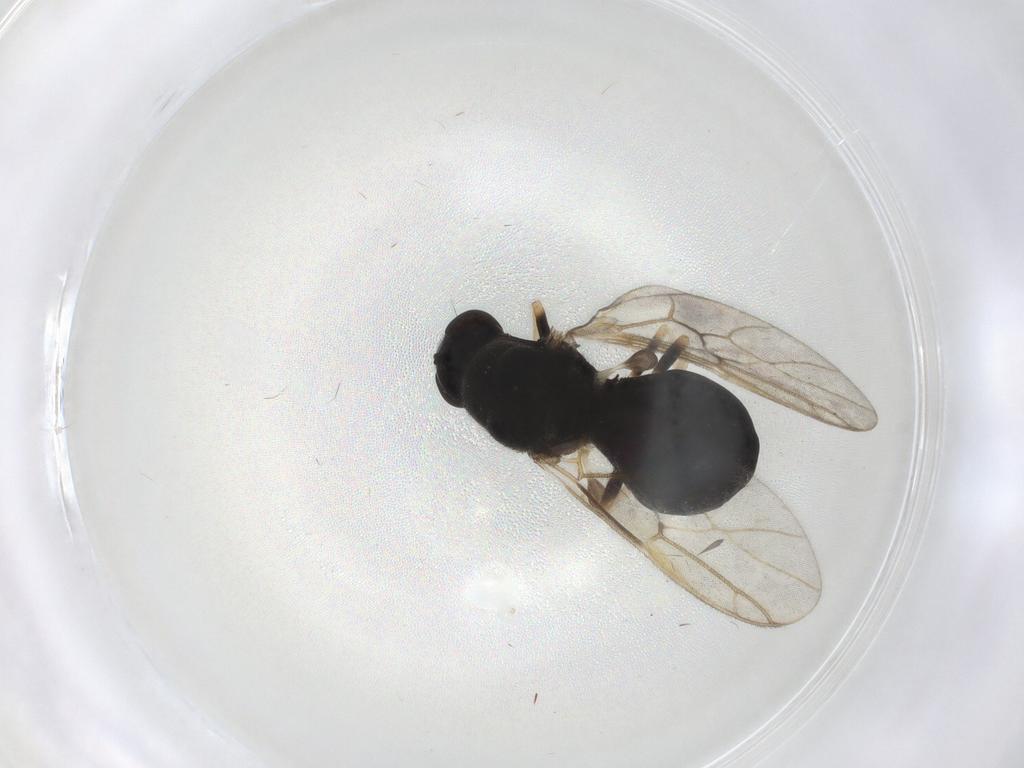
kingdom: Animalia
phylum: Arthropoda
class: Insecta
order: Diptera
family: Stratiomyidae
